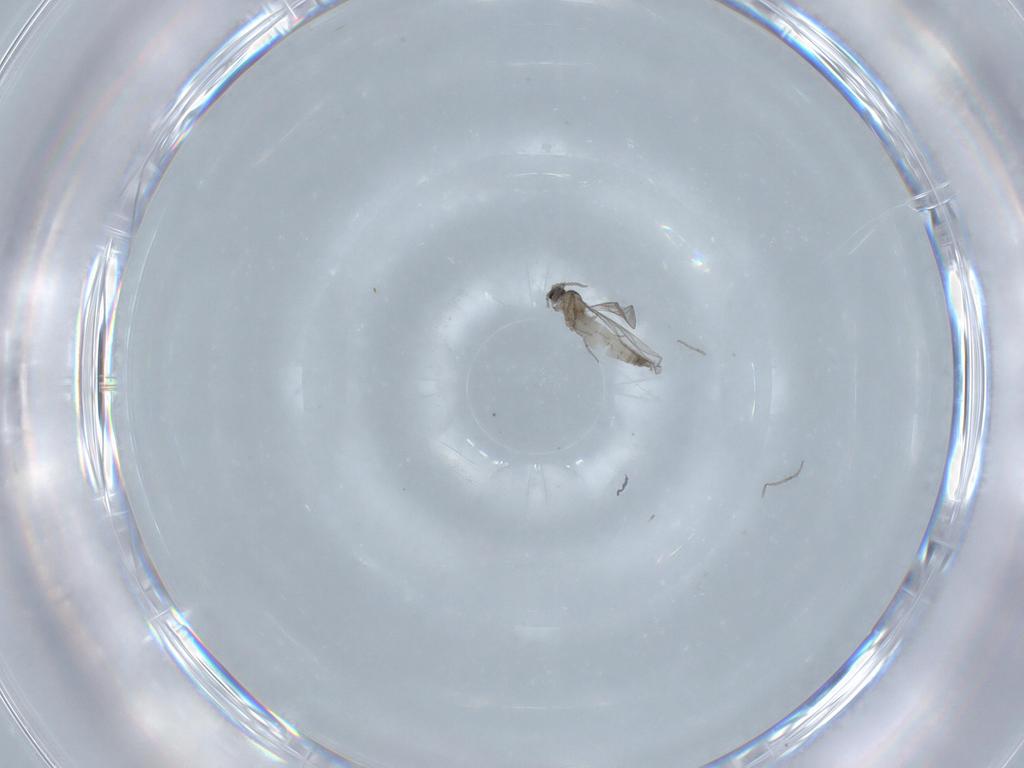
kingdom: Animalia
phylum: Arthropoda
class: Insecta
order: Diptera
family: Cecidomyiidae
